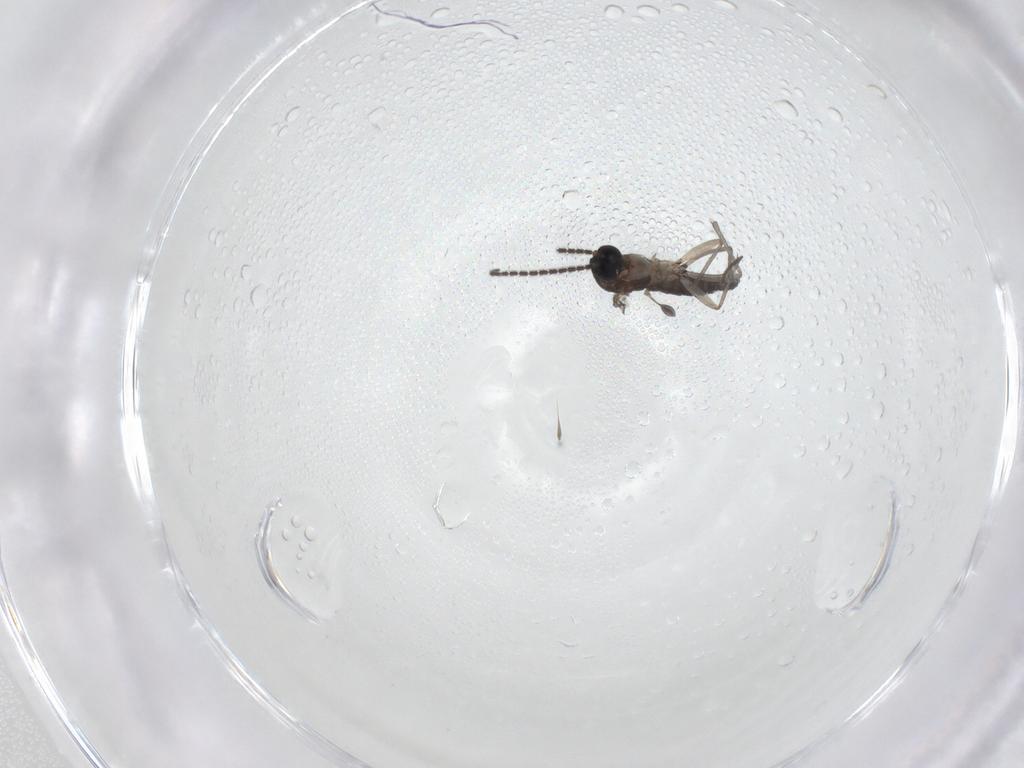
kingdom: Animalia
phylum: Arthropoda
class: Insecta
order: Diptera
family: Sciaridae
